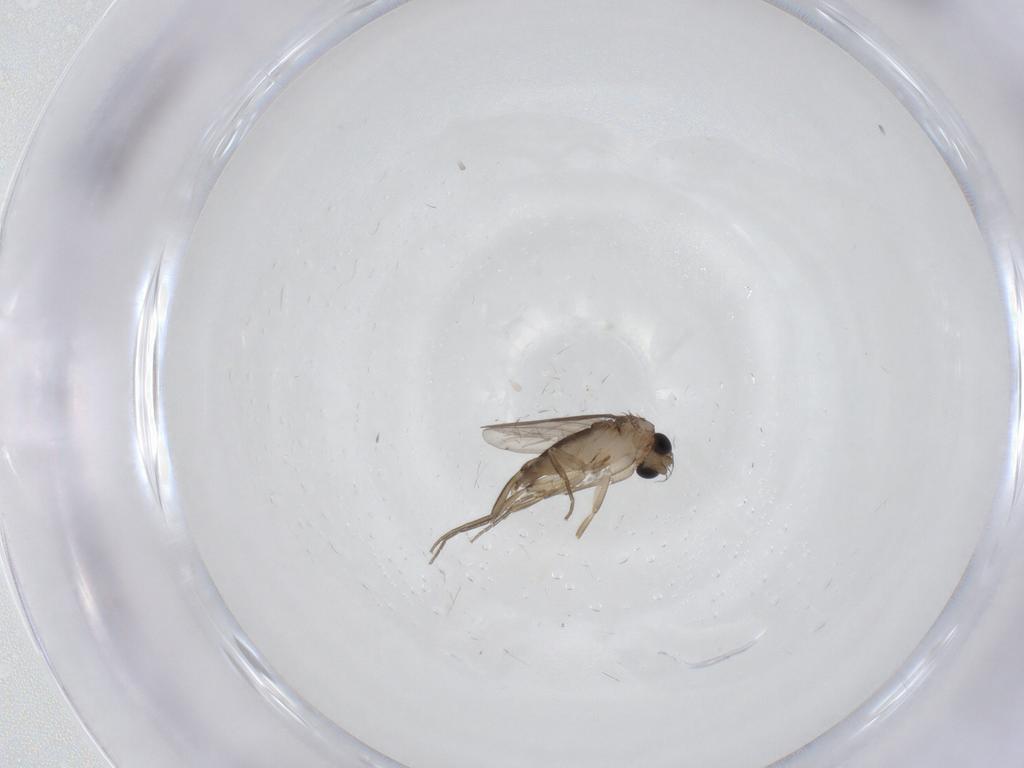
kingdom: Animalia
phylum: Arthropoda
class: Insecta
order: Diptera
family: Phoridae
